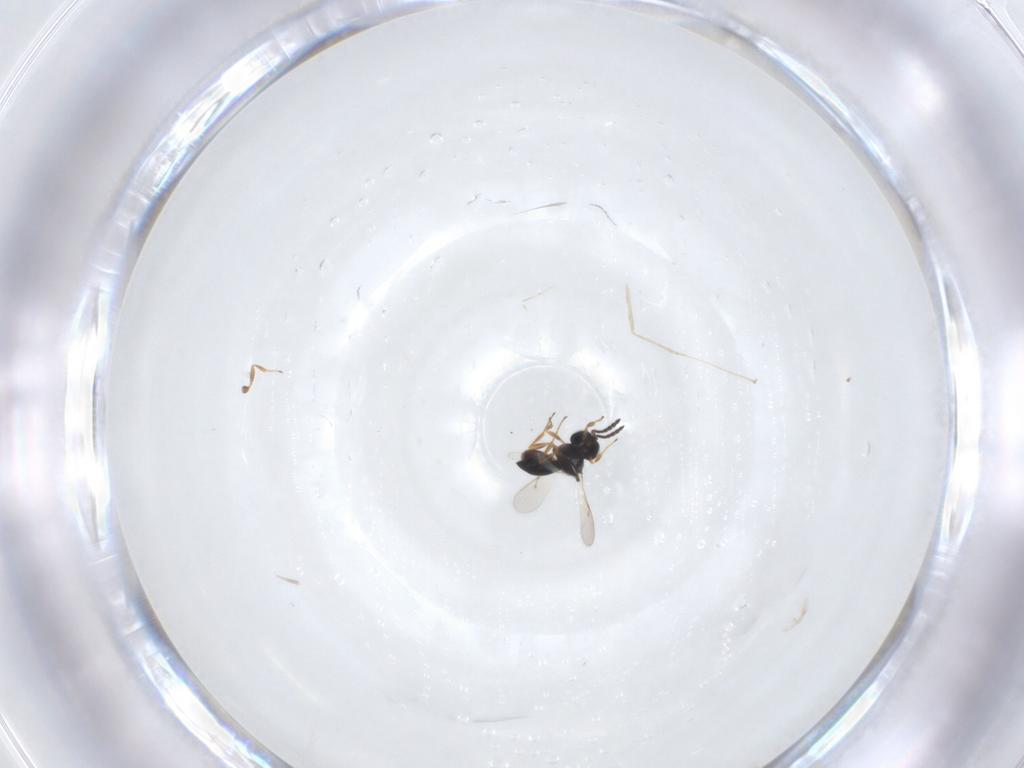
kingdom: Animalia
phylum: Arthropoda
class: Insecta
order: Hymenoptera
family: Scelionidae
